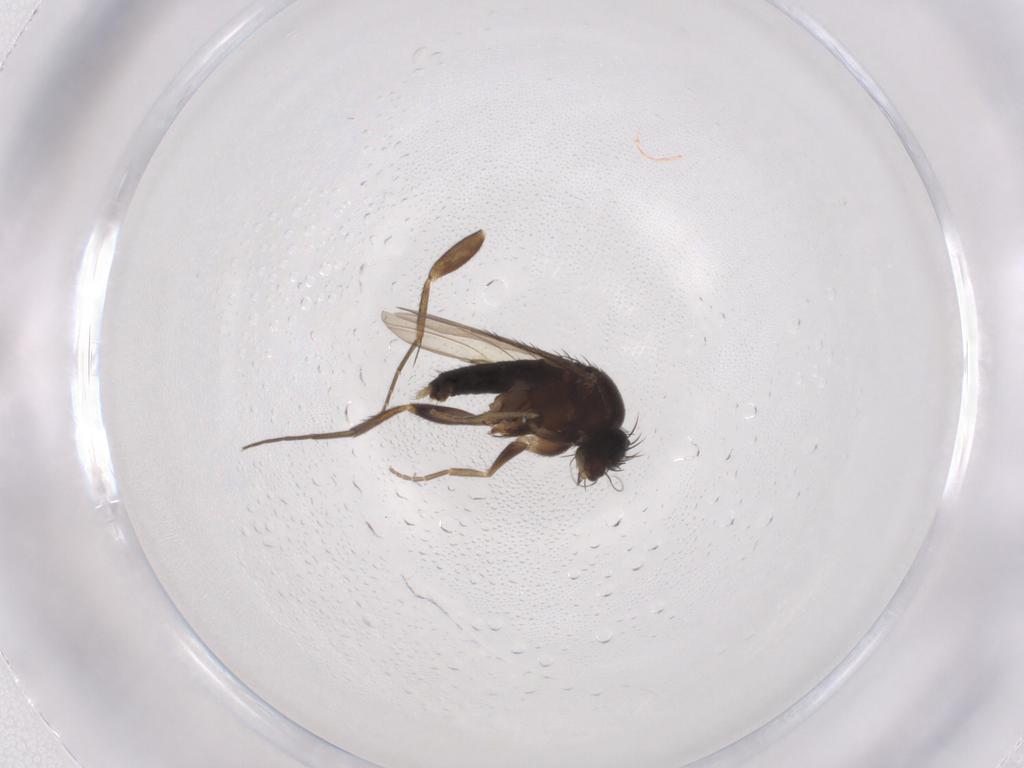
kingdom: Animalia
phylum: Arthropoda
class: Insecta
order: Diptera
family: Phoridae
